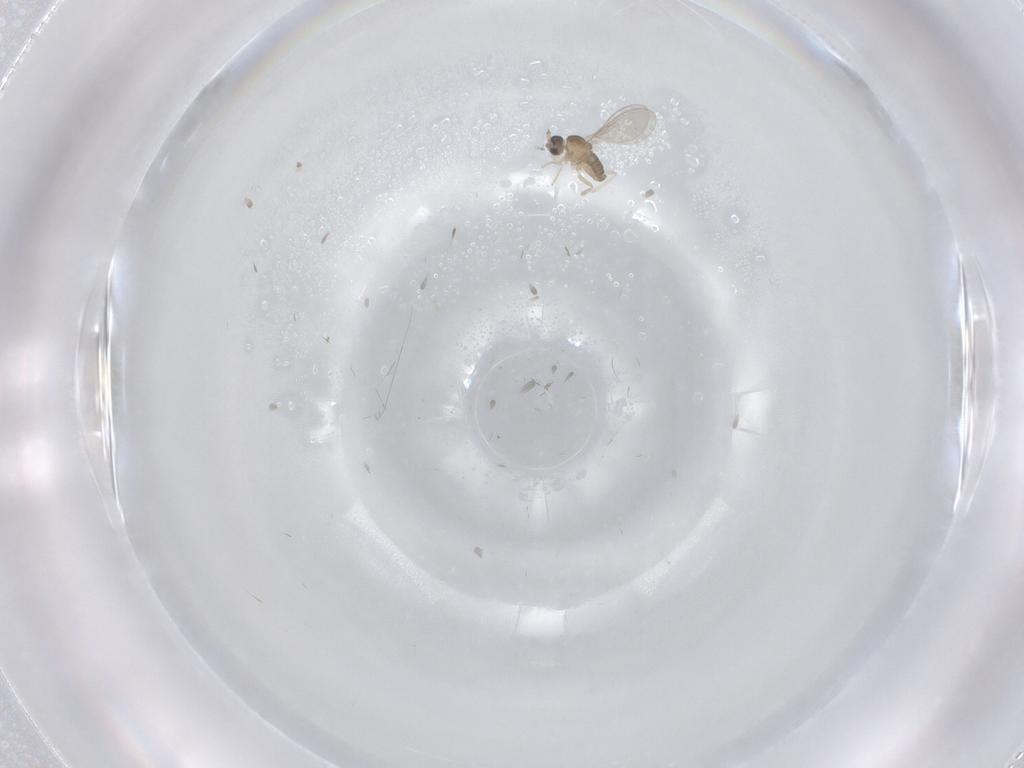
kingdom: Animalia
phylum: Arthropoda
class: Insecta
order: Diptera
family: Cecidomyiidae
